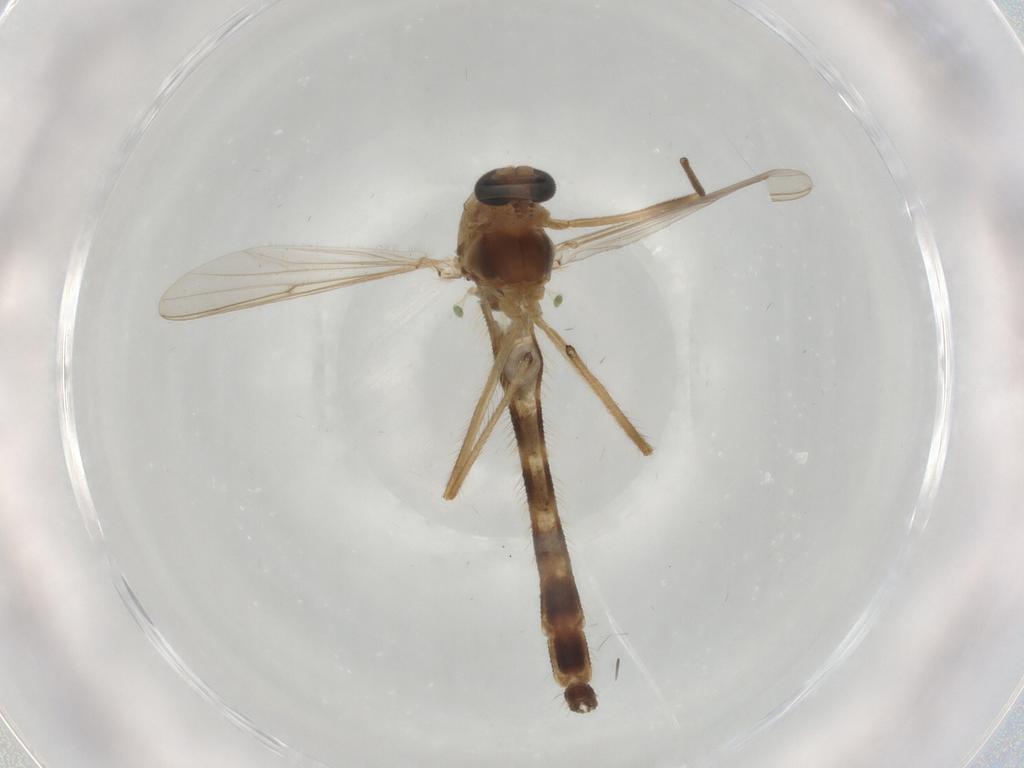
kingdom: Animalia
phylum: Arthropoda
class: Insecta
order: Diptera
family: Chironomidae
